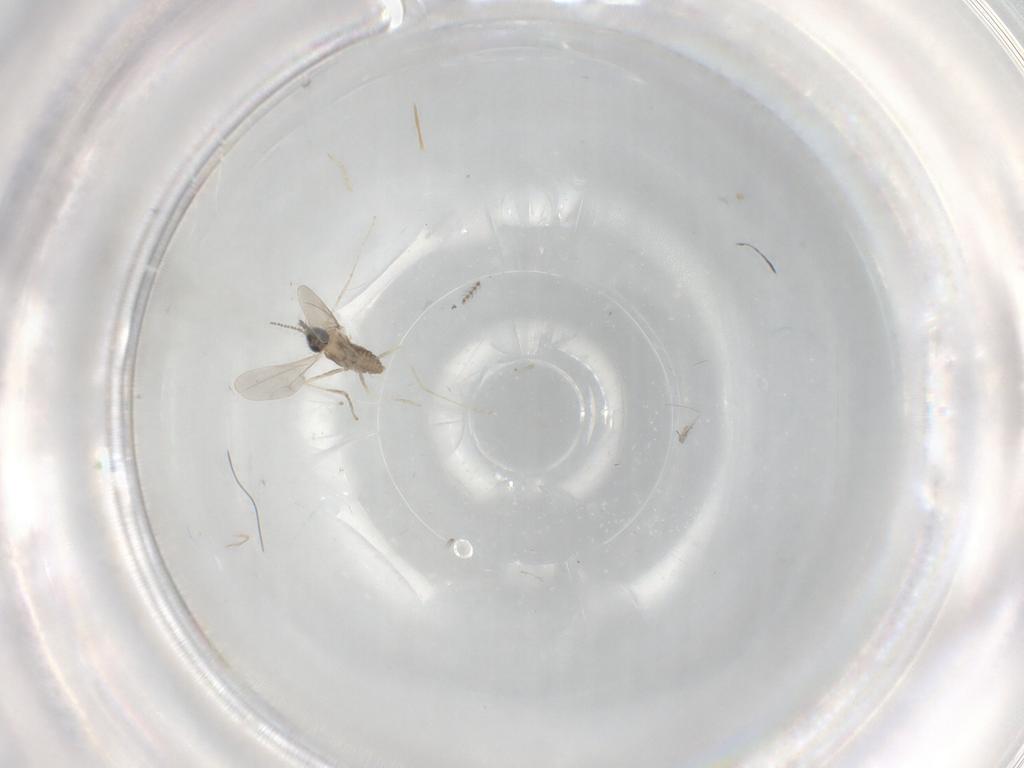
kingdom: Animalia
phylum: Arthropoda
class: Insecta
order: Diptera
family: Cecidomyiidae
